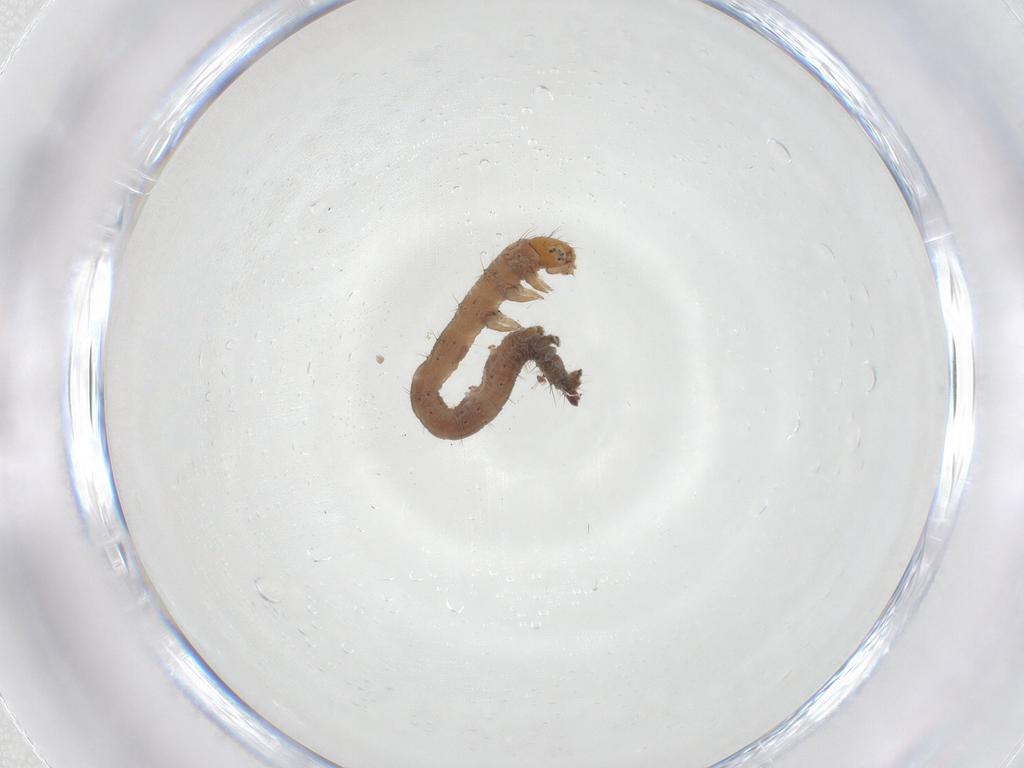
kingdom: Animalia
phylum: Arthropoda
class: Insecta
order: Lepidoptera
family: Erebidae
